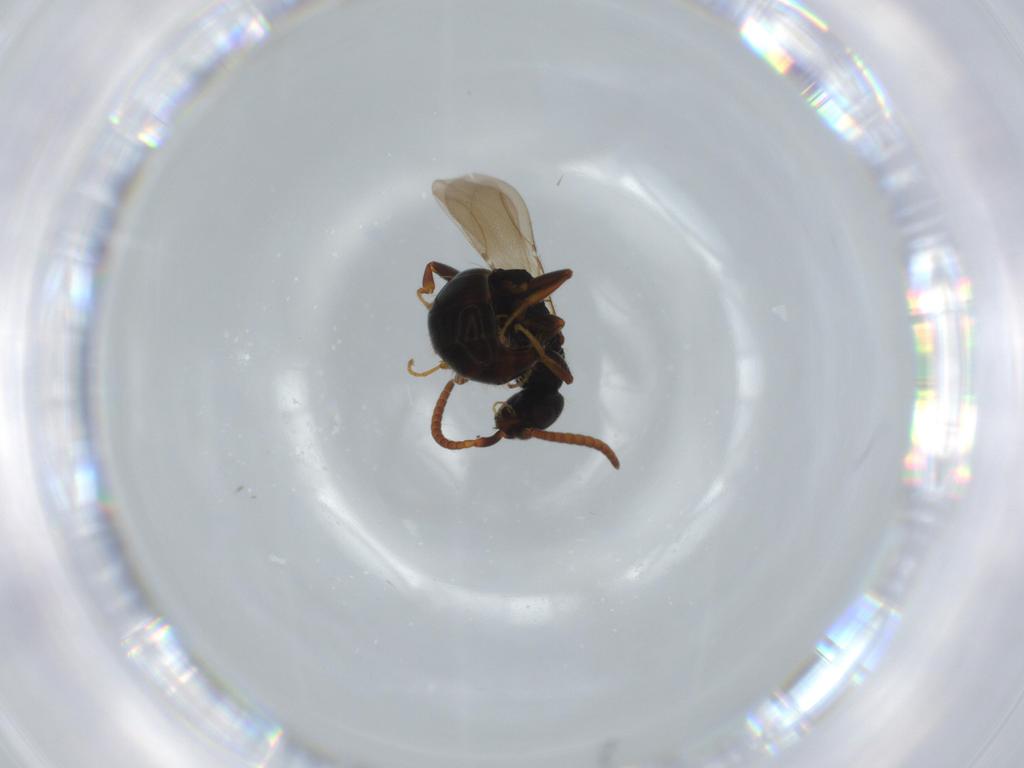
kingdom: Animalia
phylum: Arthropoda
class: Insecta
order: Hymenoptera
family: Bethylidae
